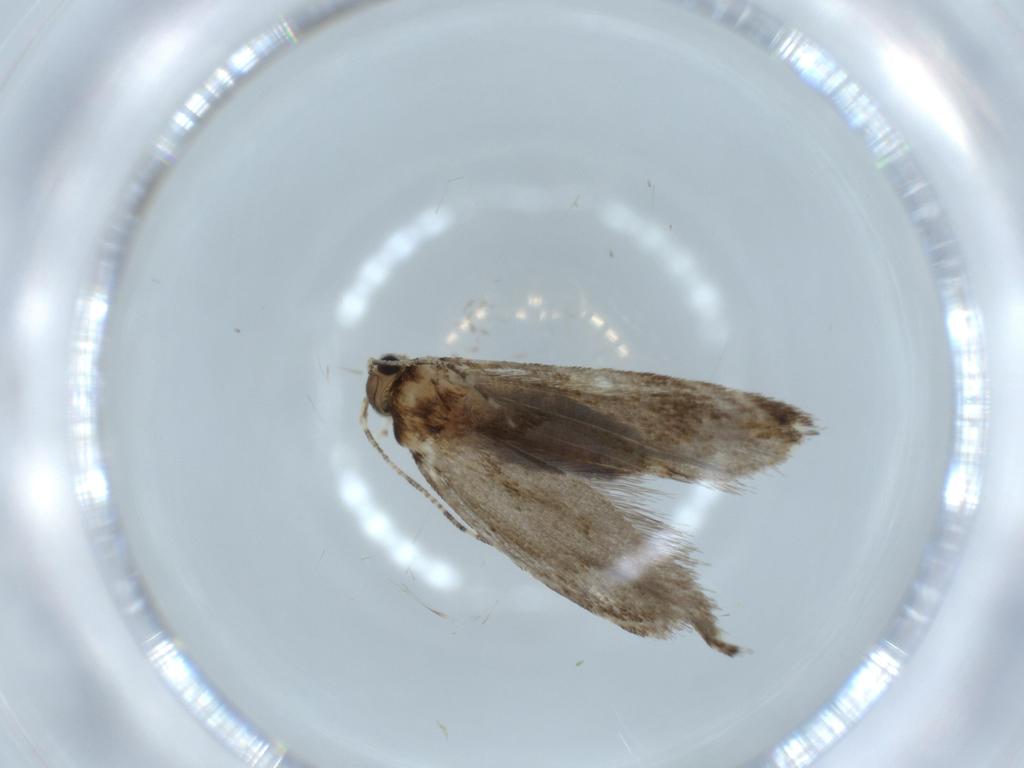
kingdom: Animalia
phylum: Arthropoda
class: Insecta
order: Lepidoptera
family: Tineidae
